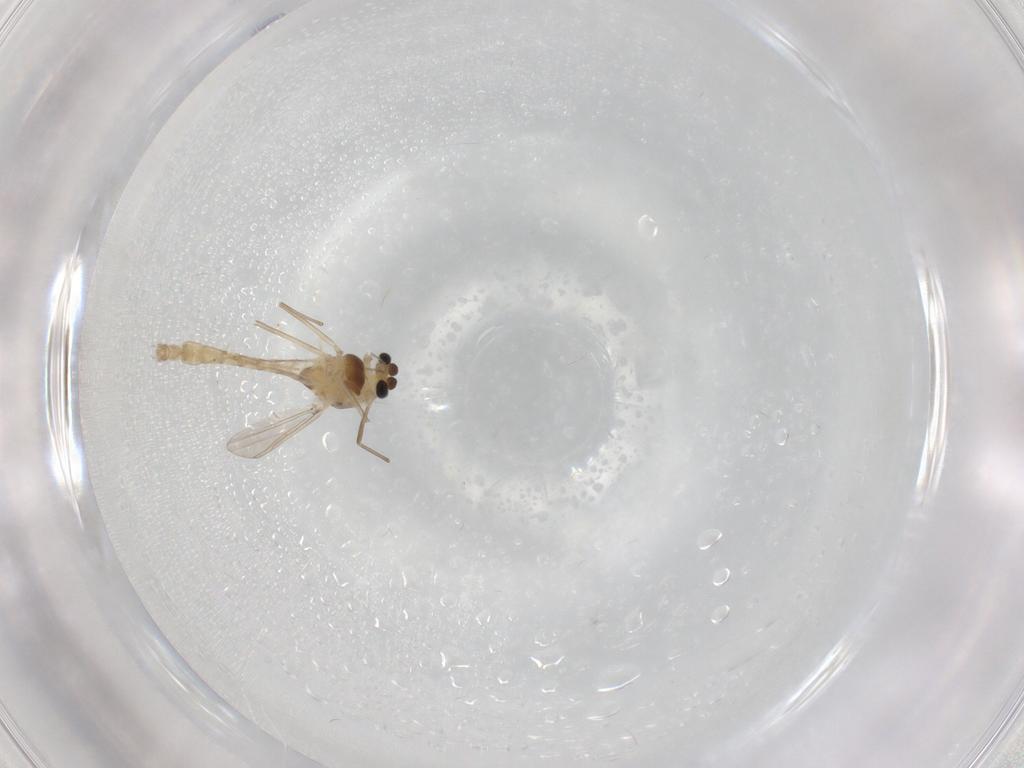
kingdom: Animalia
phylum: Arthropoda
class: Insecta
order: Diptera
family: Chironomidae
